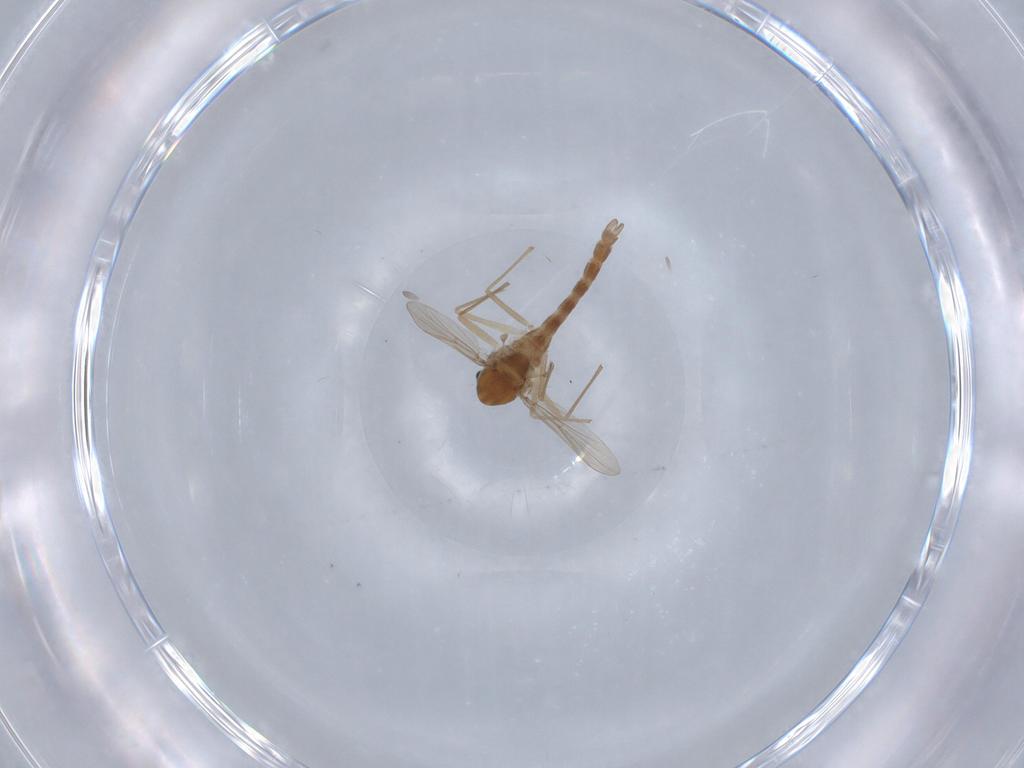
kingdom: Animalia
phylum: Arthropoda
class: Insecta
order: Diptera
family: Chironomidae
